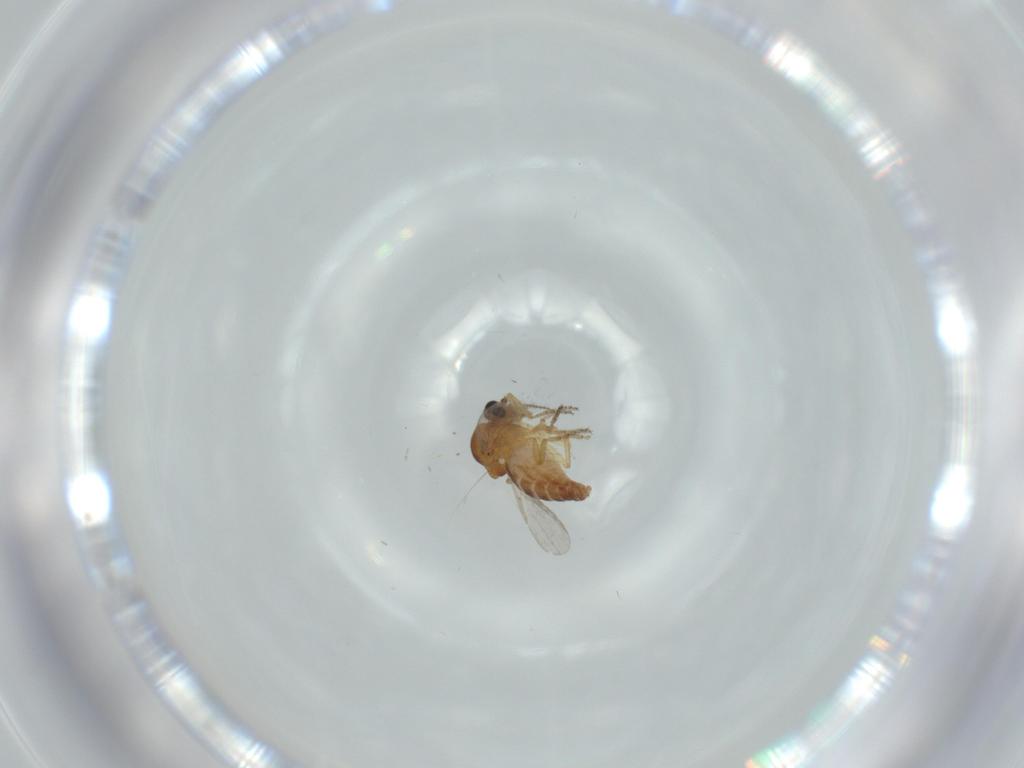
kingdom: Animalia
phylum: Arthropoda
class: Insecta
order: Diptera
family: Ceratopogonidae
